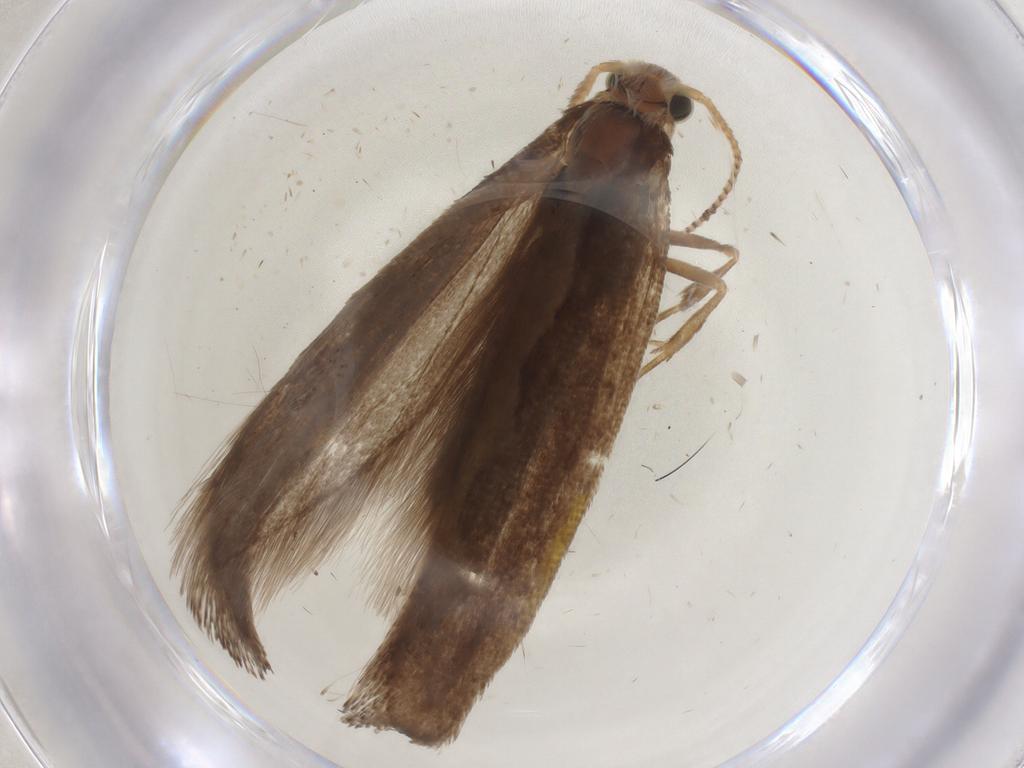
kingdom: Animalia
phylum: Arthropoda
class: Insecta
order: Lepidoptera
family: Plutellidae
